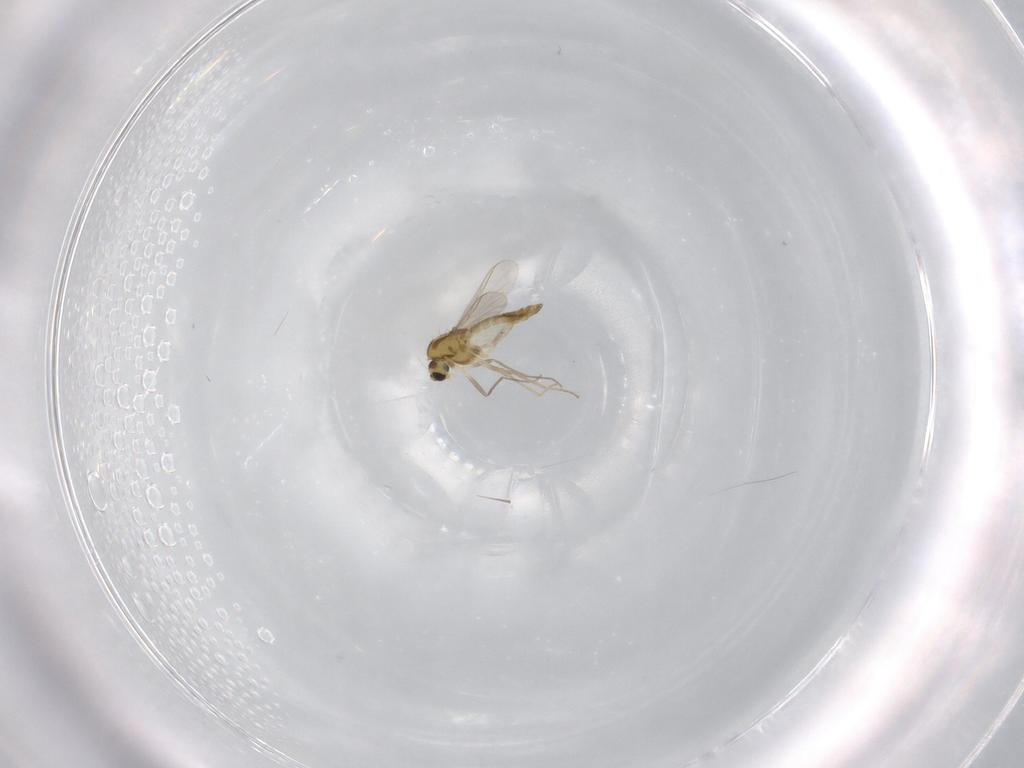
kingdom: Animalia
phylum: Arthropoda
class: Insecta
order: Diptera
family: Chironomidae
